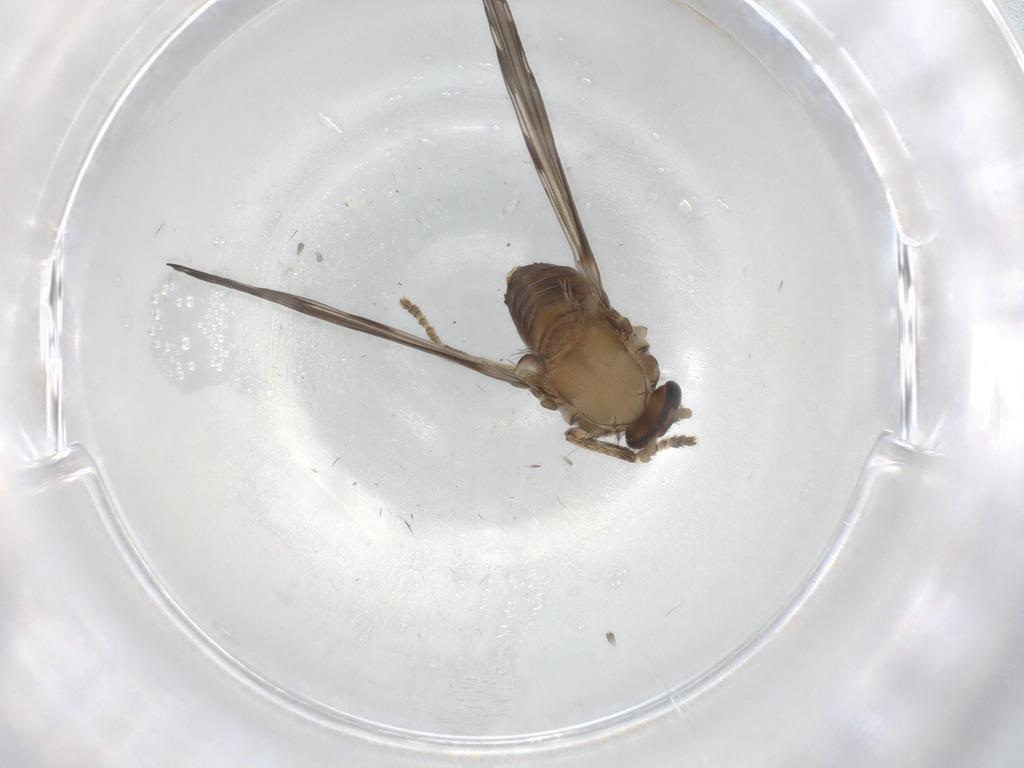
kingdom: Animalia
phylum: Arthropoda
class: Insecta
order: Diptera
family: Psychodidae
